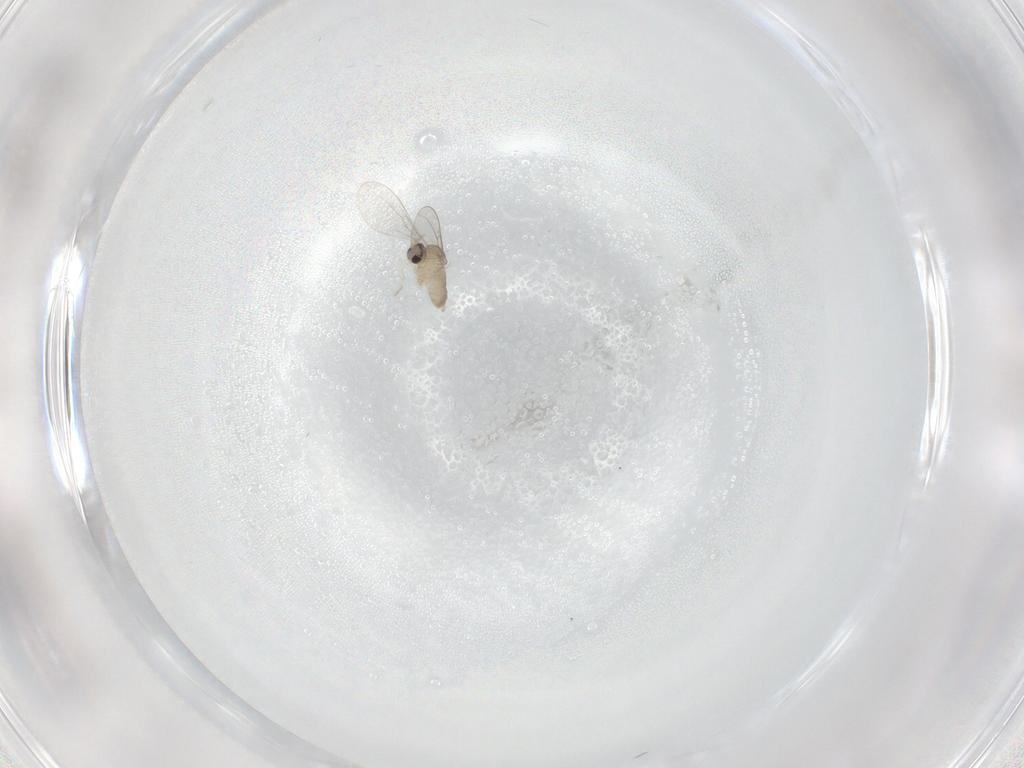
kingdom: Animalia
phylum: Arthropoda
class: Insecta
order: Diptera
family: Cecidomyiidae
